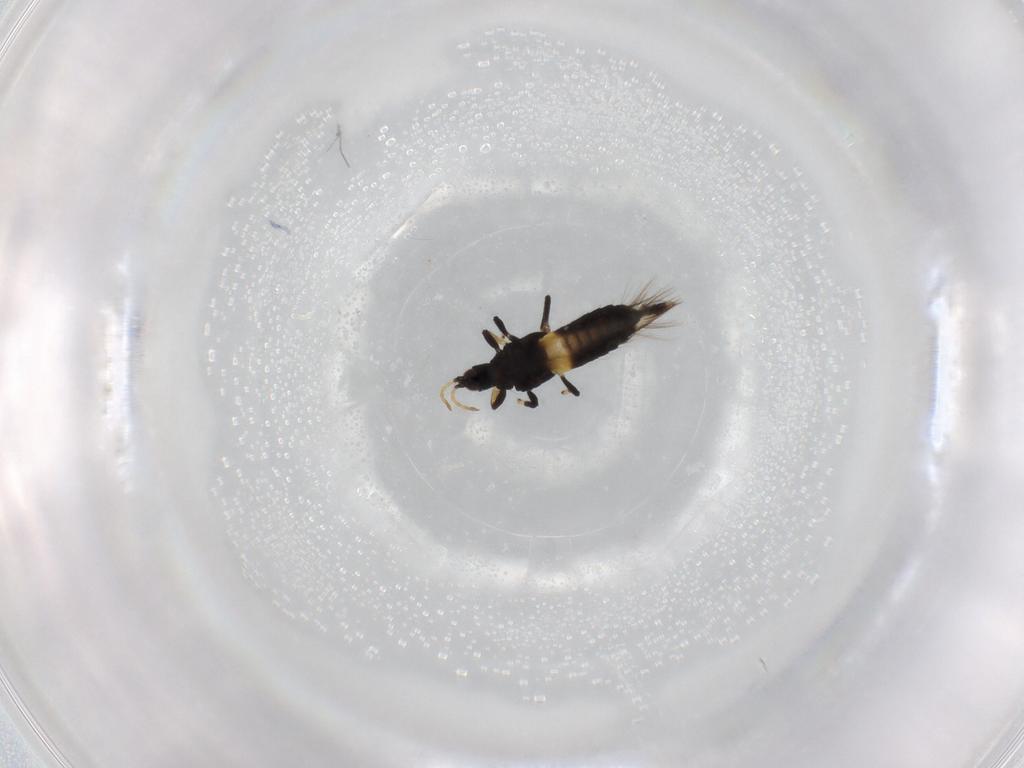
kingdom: Animalia
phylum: Arthropoda
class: Insecta
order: Thysanoptera
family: Phlaeothripidae
